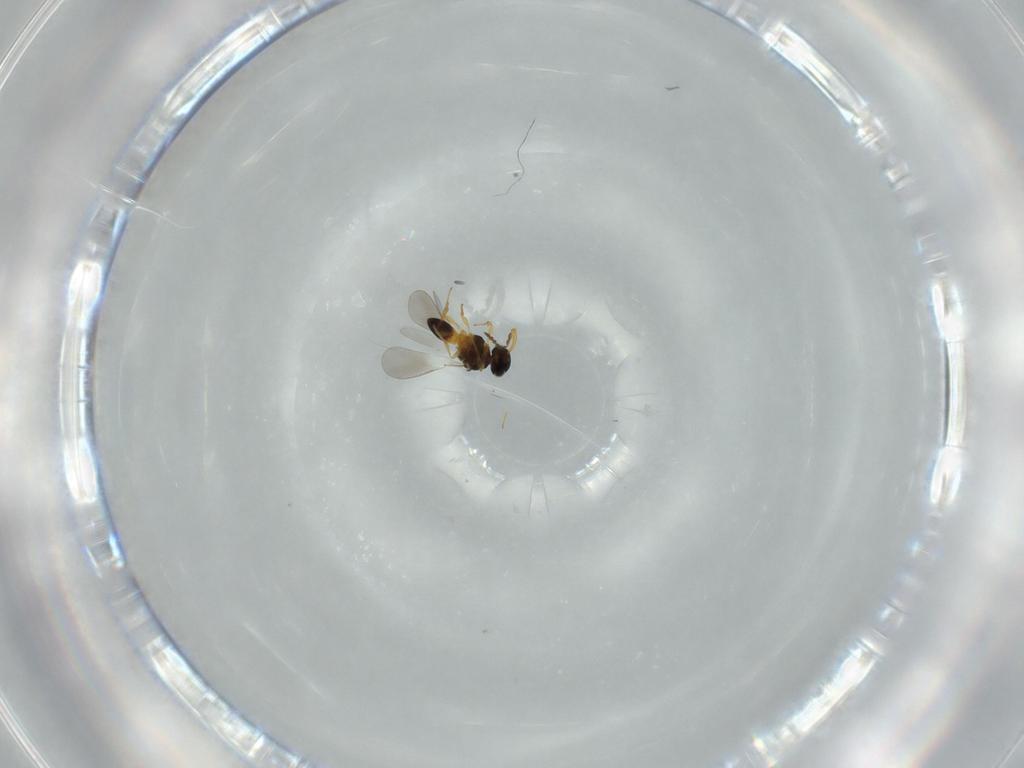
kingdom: Animalia
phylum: Arthropoda
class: Insecta
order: Hymenoptera
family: Platygastridae
